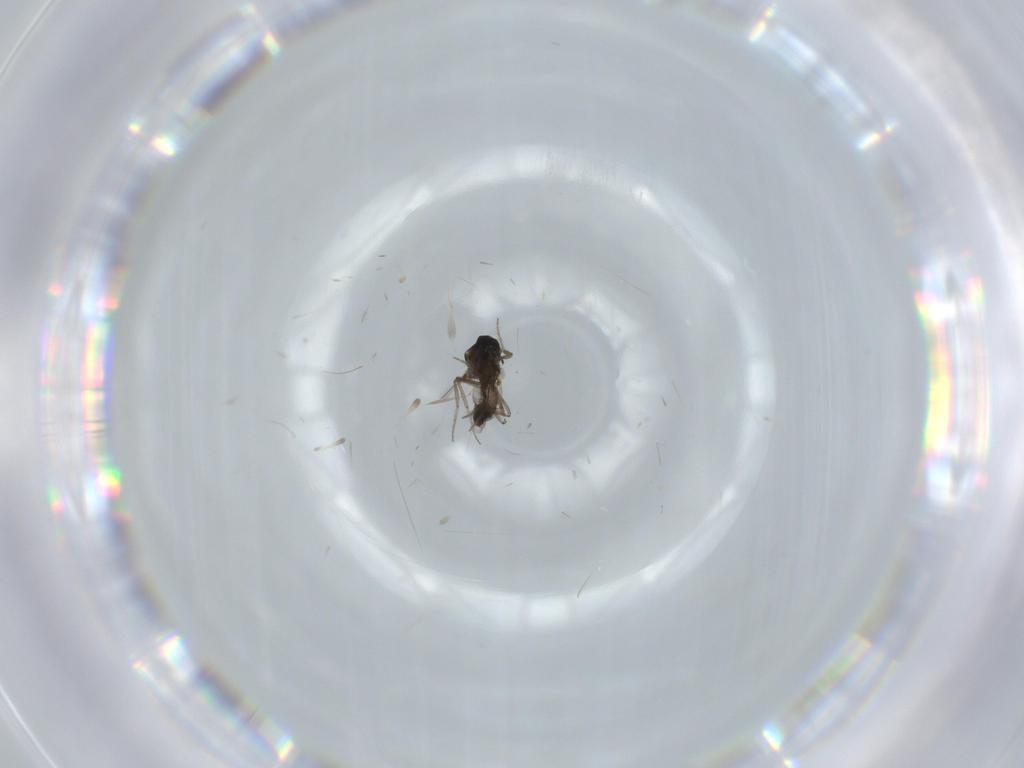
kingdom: Animalia
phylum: Arthropoda
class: Insecta
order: Diptera
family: Ceratopogonidae
